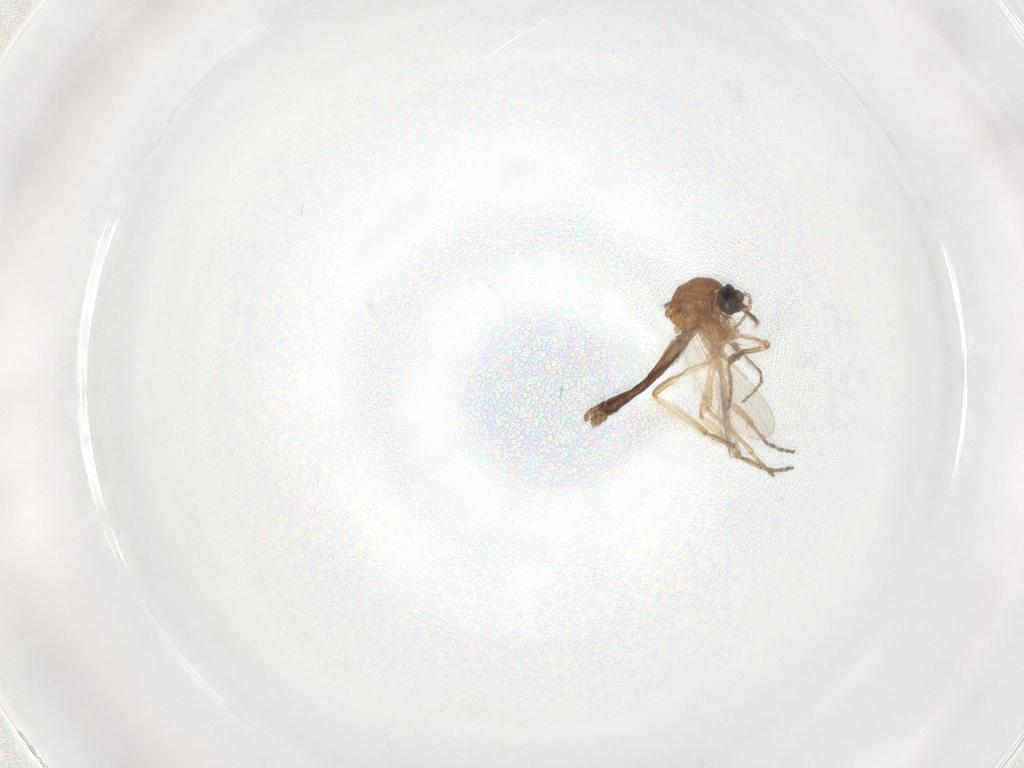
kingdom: Animalia
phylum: Arthropoda
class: Insecta
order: Diptera
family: Ceratopogonidae
